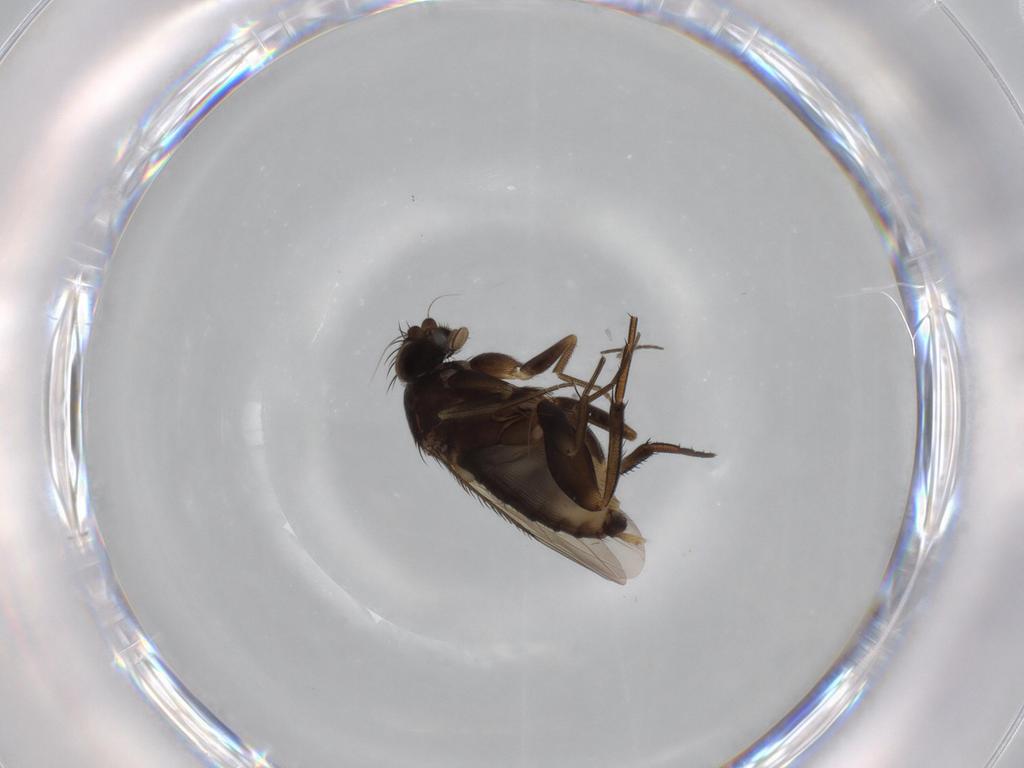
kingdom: Animalia
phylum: Arthropoda
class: Insecta
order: Diptera
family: Phoridae
